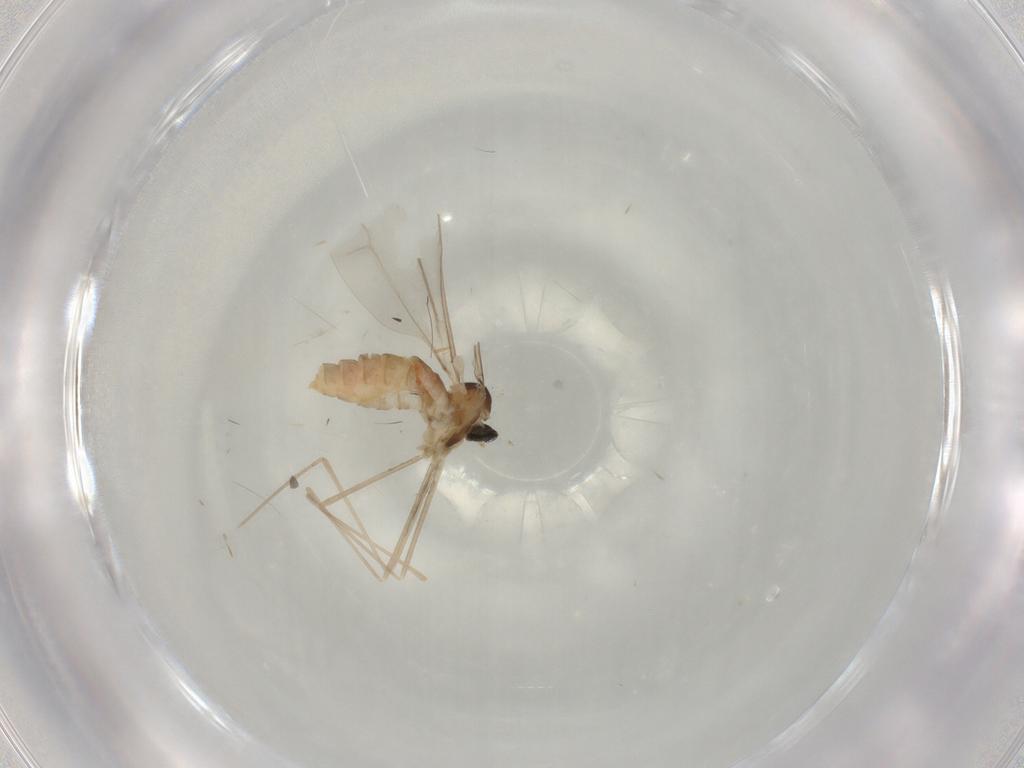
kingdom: Animalia
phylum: Arthropoda
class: Insecta
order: Diptera
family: Cecidomyiidae
